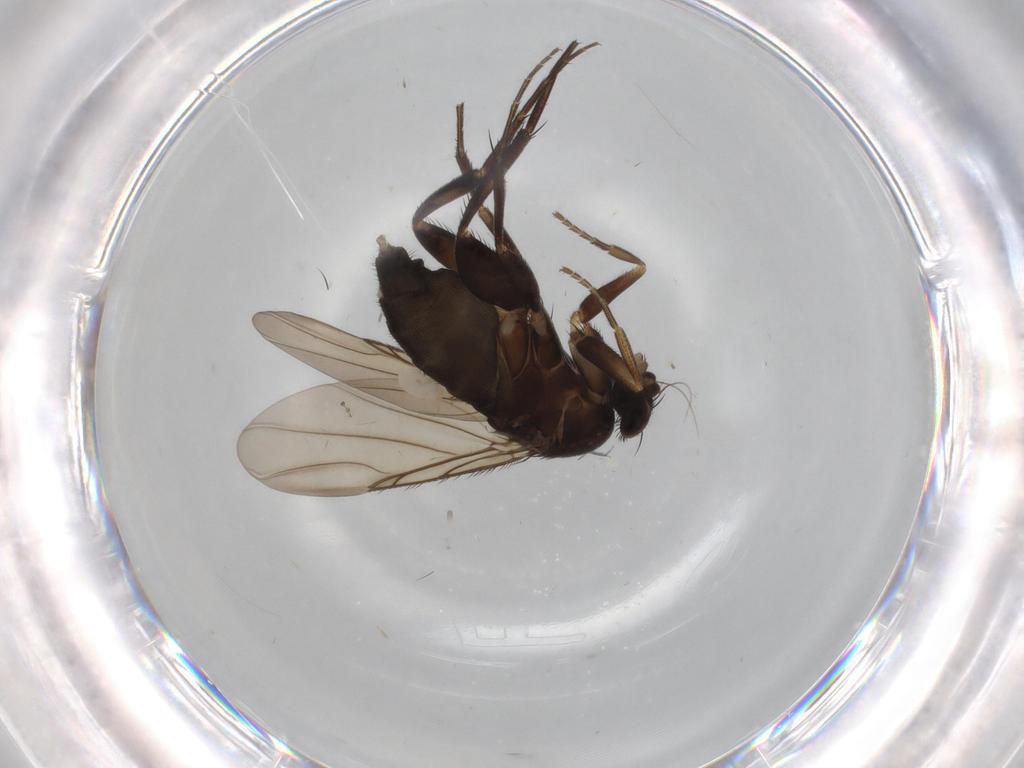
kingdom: Animalia
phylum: Arthropoda
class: Insecta
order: Diptera
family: Phoridae
